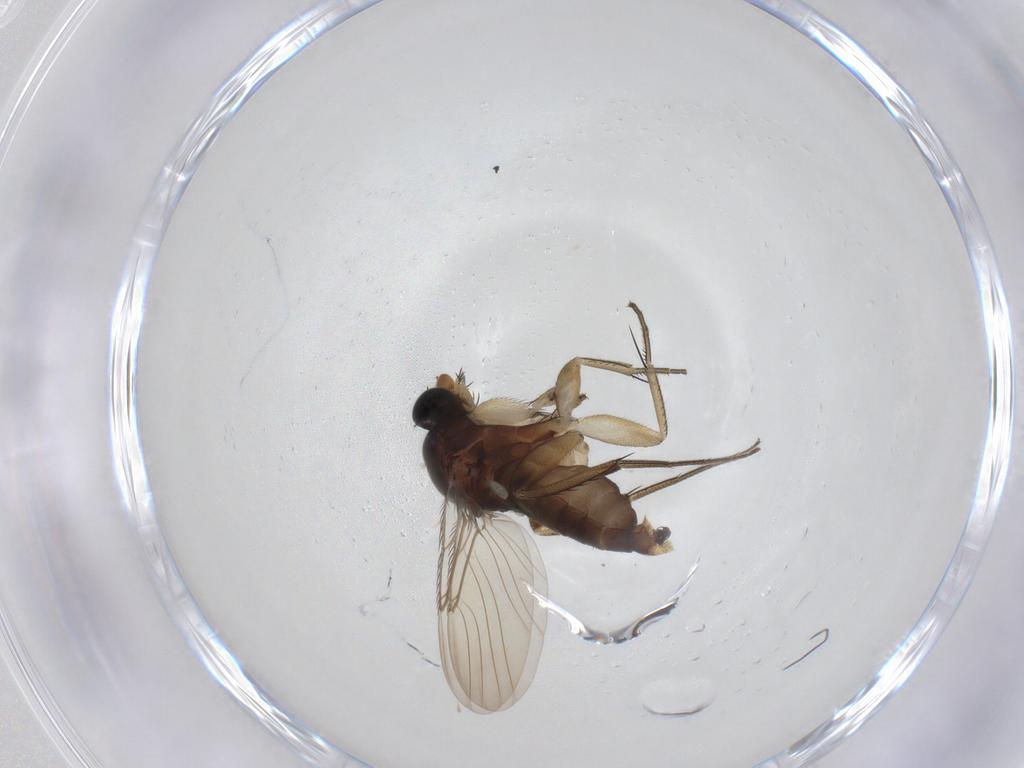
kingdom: Animalia
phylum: Arthropoda
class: Insecta
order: Diptera
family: Phoridae
